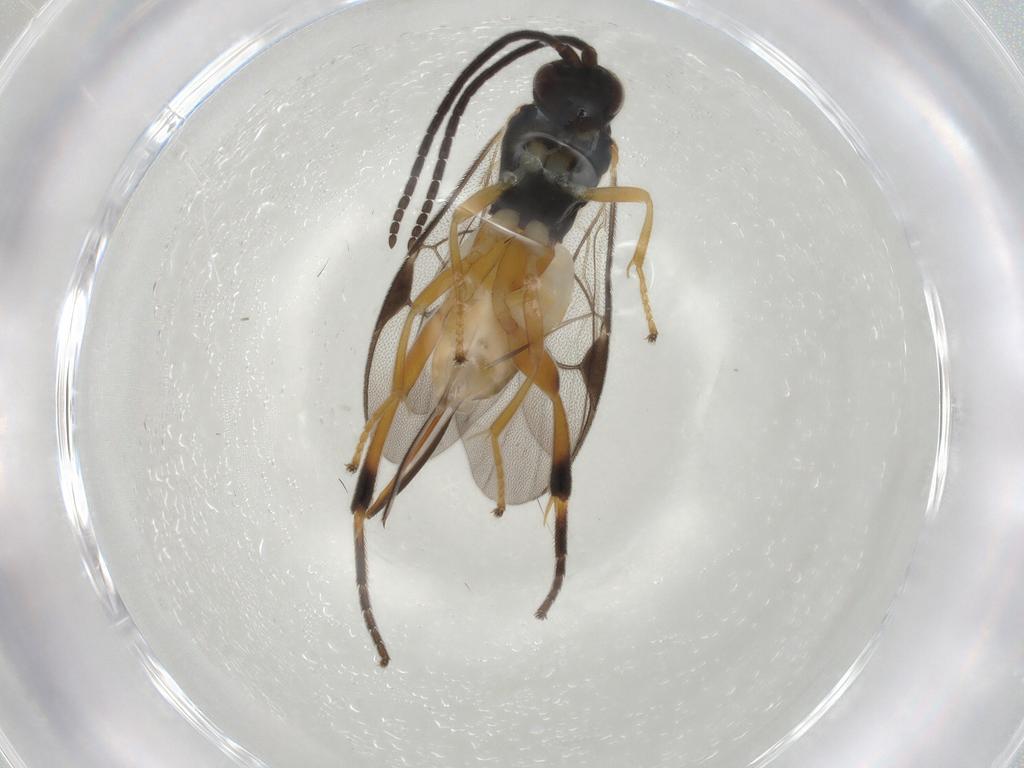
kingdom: Animalia
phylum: Arthropoda
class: Insecta
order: Hymenoptera
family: Braconidae
